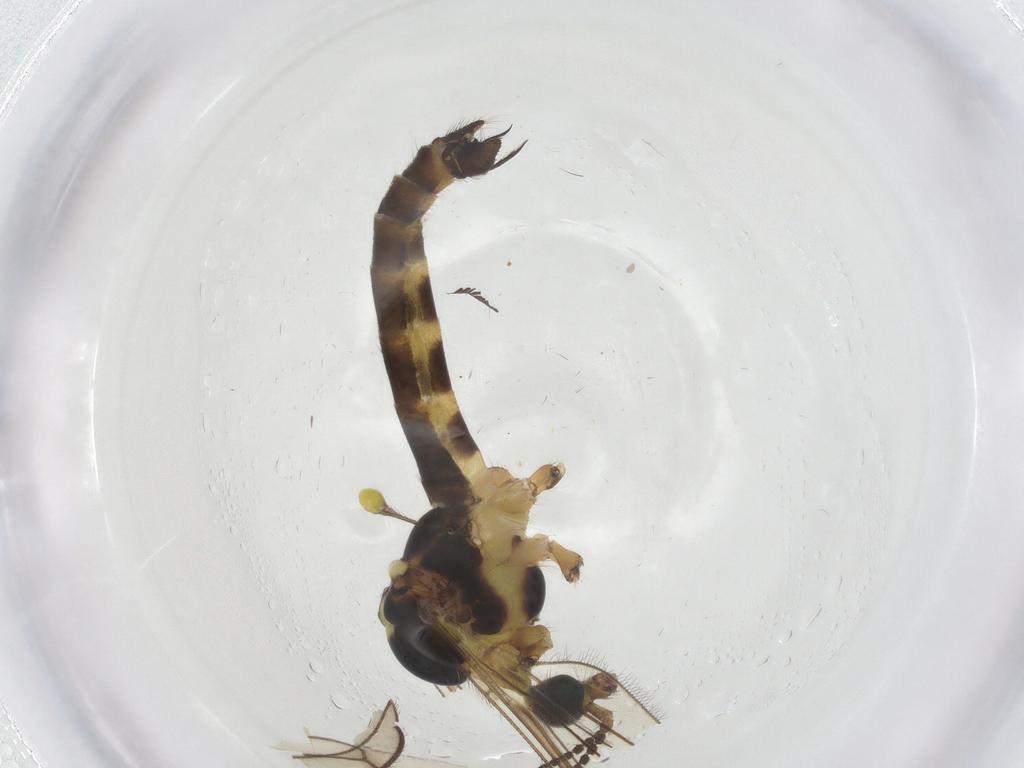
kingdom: Animalia
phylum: Arthropoda
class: Insecta
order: Diptera
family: Limoniidae
